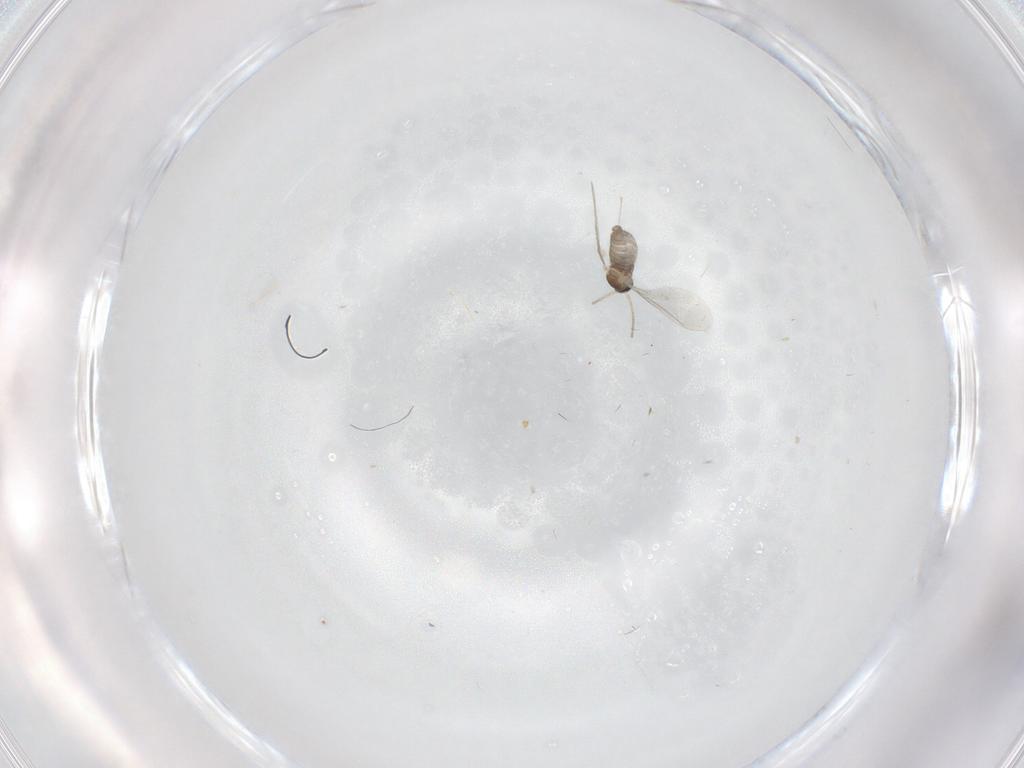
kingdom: Animalia
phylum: Arthropoda
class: Insecta
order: Diptera
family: Cecidomyiidae
